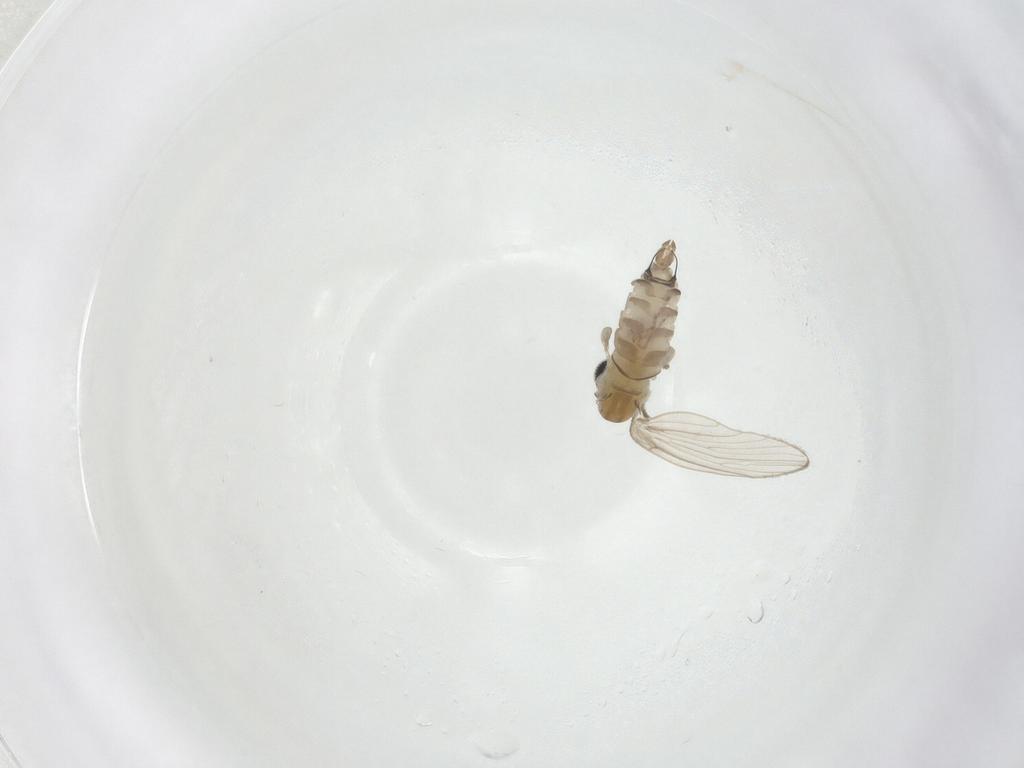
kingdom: Animalia
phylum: Arthropoda
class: Insecta
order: Diptera
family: Psychodidae
